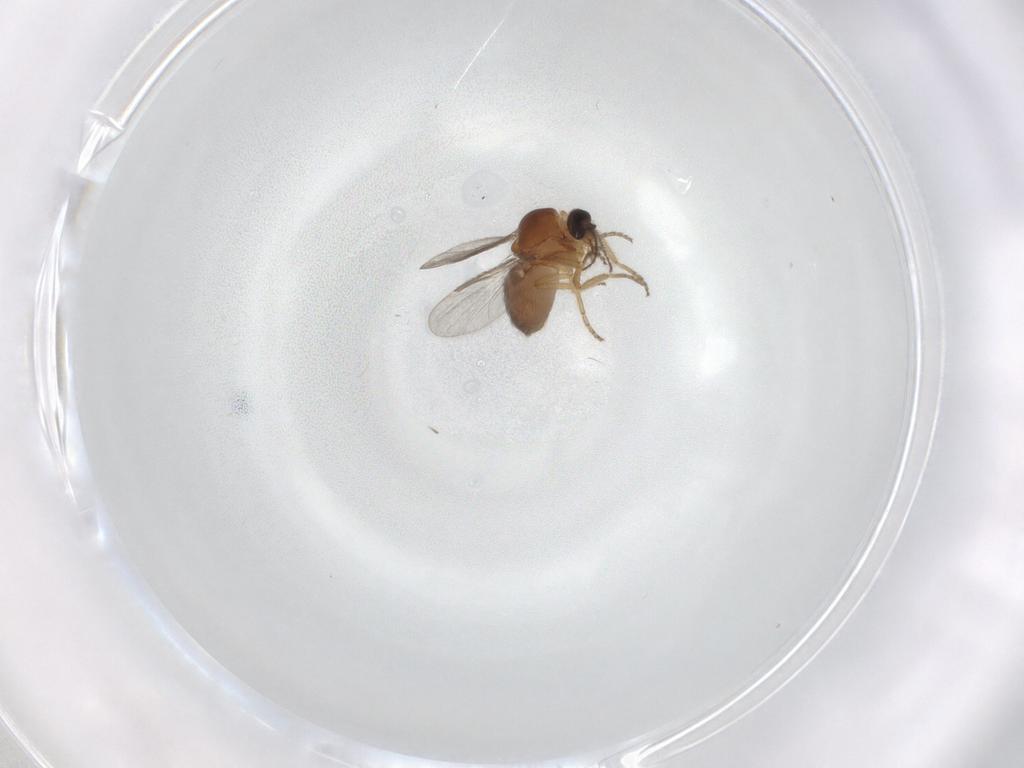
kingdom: Animalia
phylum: Arthropoda
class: Insecta
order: Diptera
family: Ceratopogonidae
